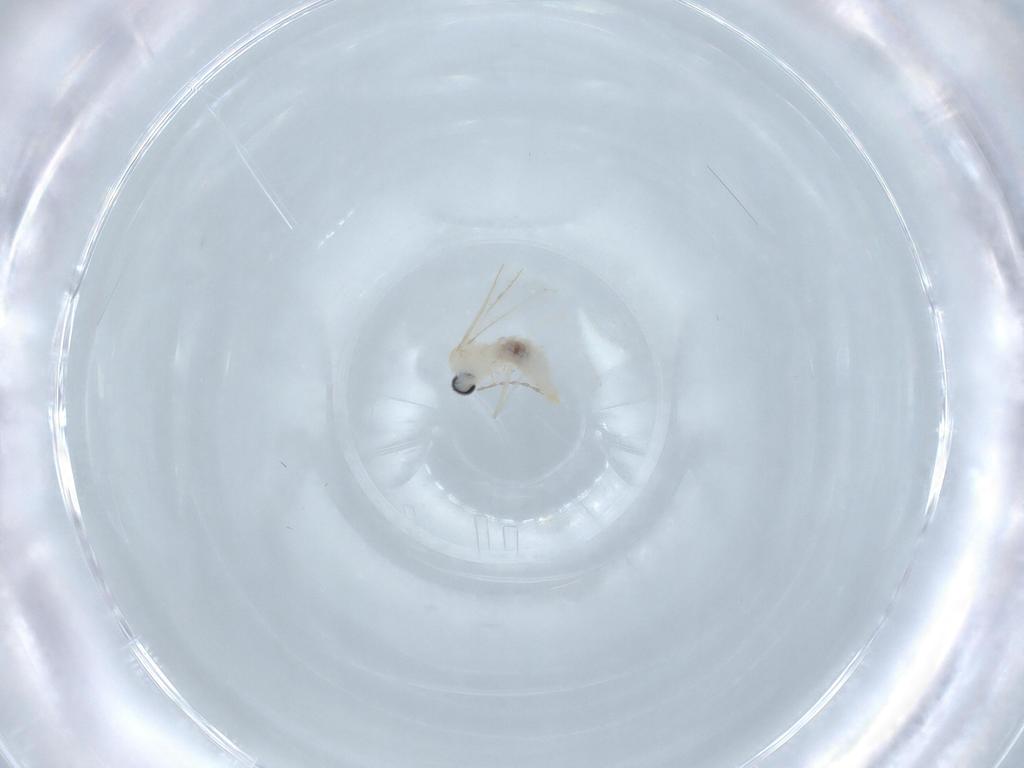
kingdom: Animalia
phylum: Arthropoda
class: Insecta
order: Diptera
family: Cecidomyiidae
